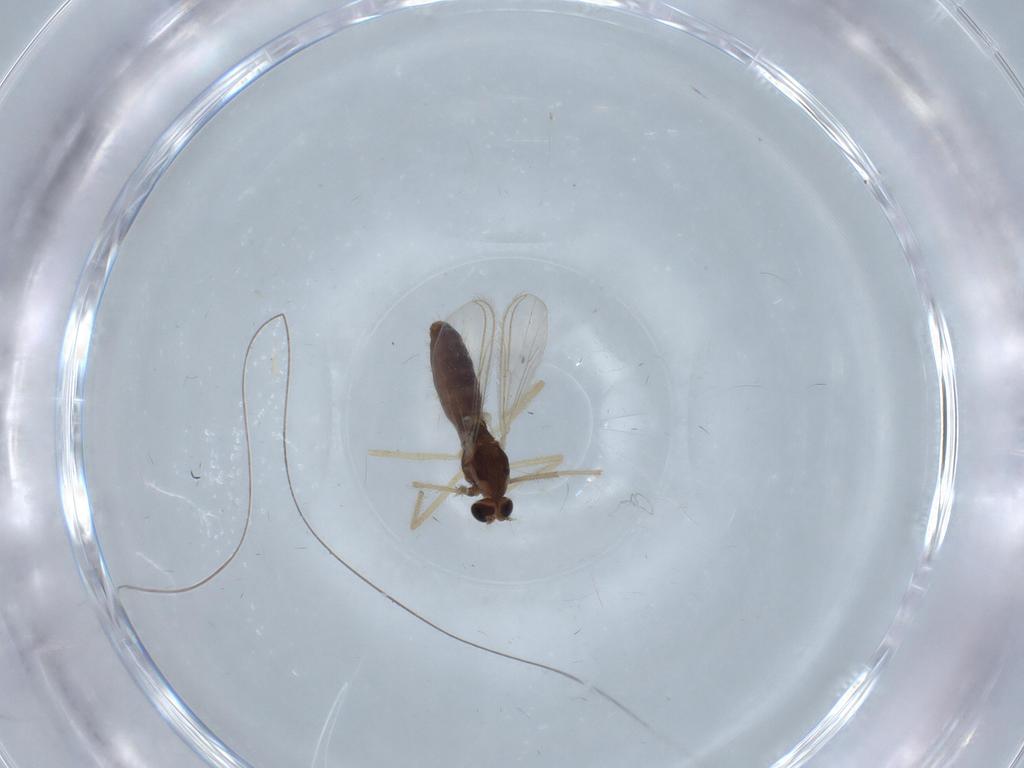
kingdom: Animalia
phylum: Arthropoda
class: Insecta
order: Diptera
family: Chironomidae
